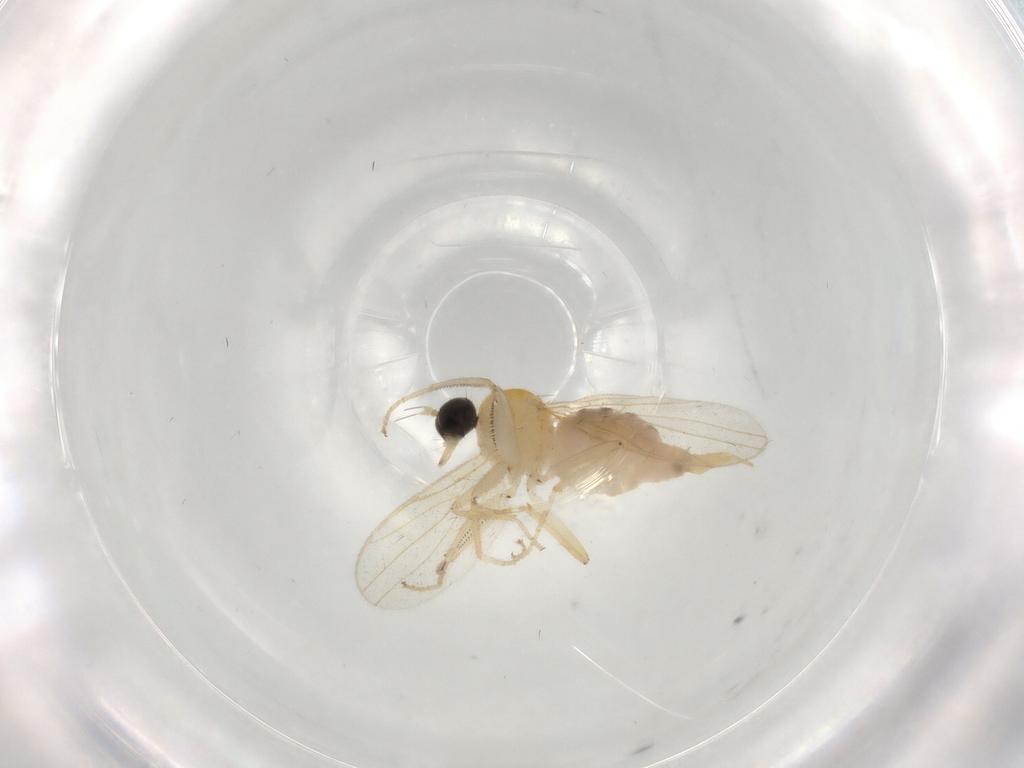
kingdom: Animalia
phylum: Arthropoda
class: Insecta
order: Diptera
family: Hybotidae
